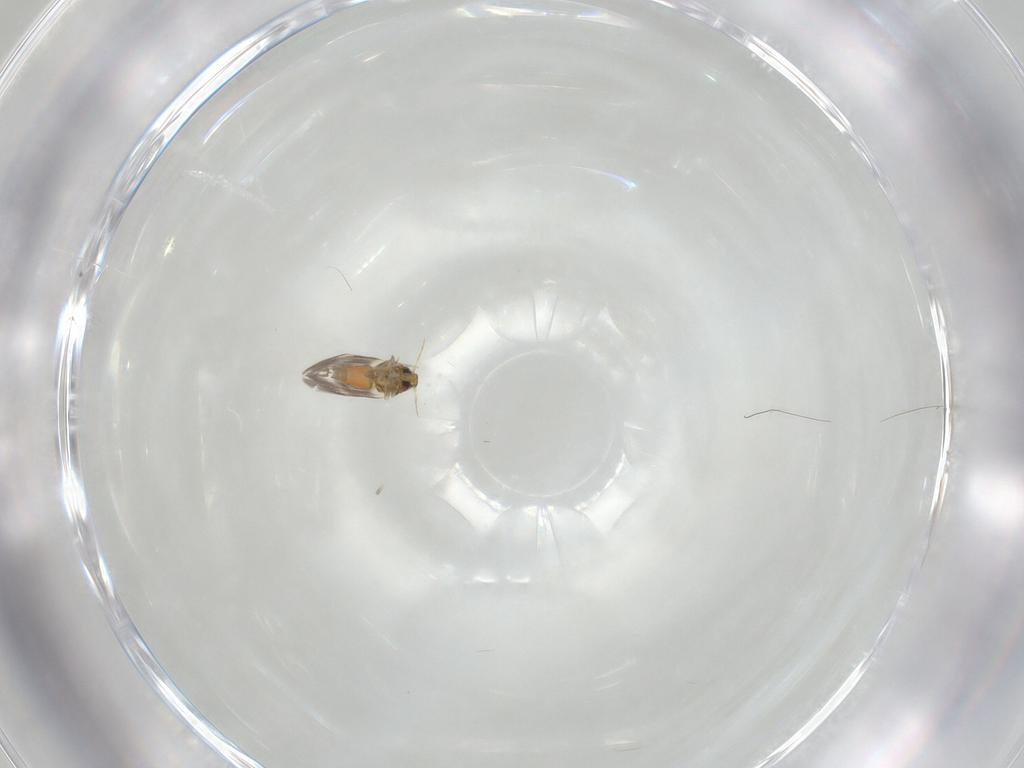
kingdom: Animalia
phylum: Arthropoda
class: Insecta
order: Hemiptera
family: Aleyrodidae
